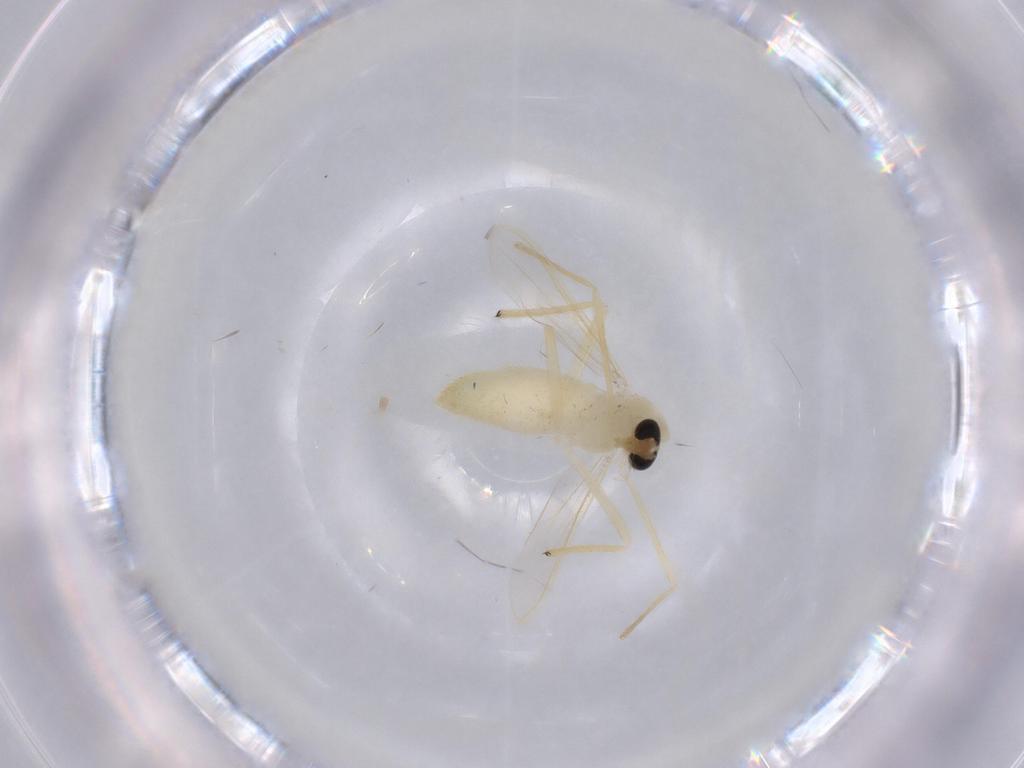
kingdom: Animalia
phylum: Arthropoda
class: Insecta
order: Diptera
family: Chironomidae
